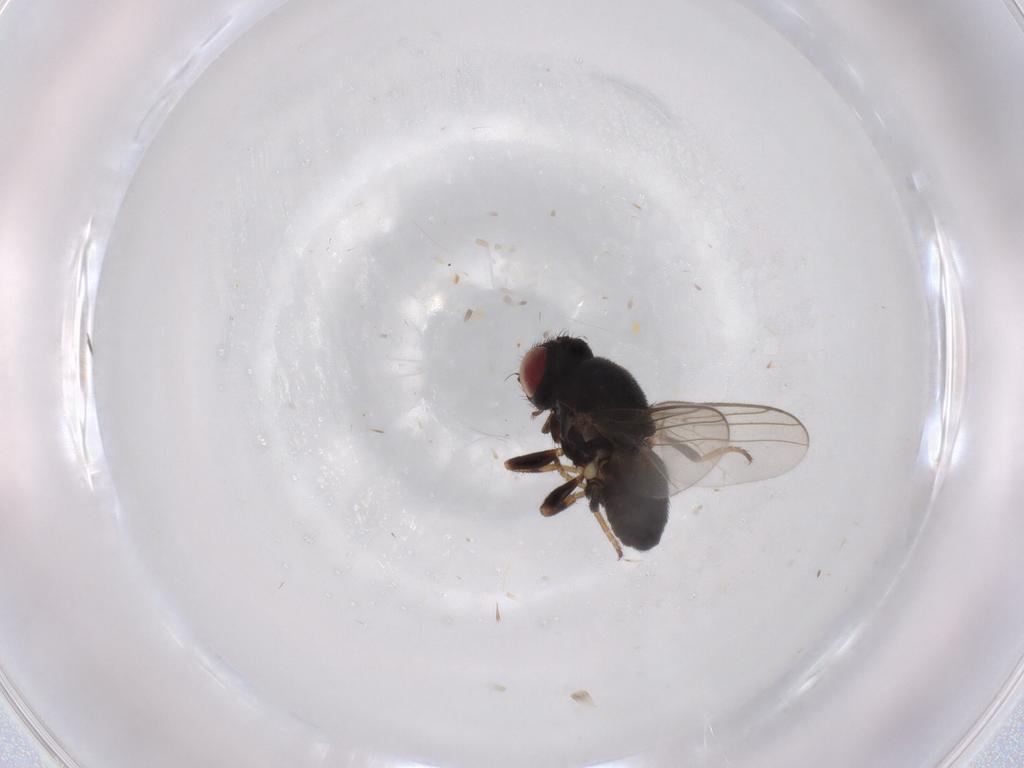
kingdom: Animalia
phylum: Arthropoda
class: Insecta
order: Diptera
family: Chloropidae
